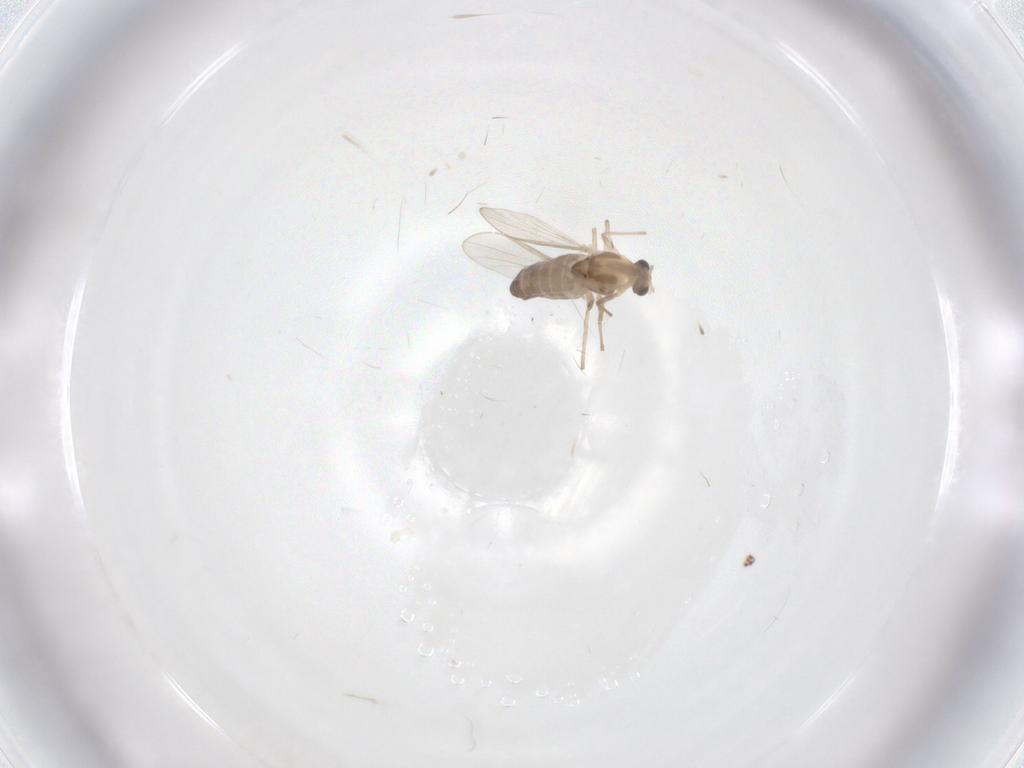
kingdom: Animalia
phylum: Arthropoda
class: Insecta
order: Diptera
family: Chironomidae
